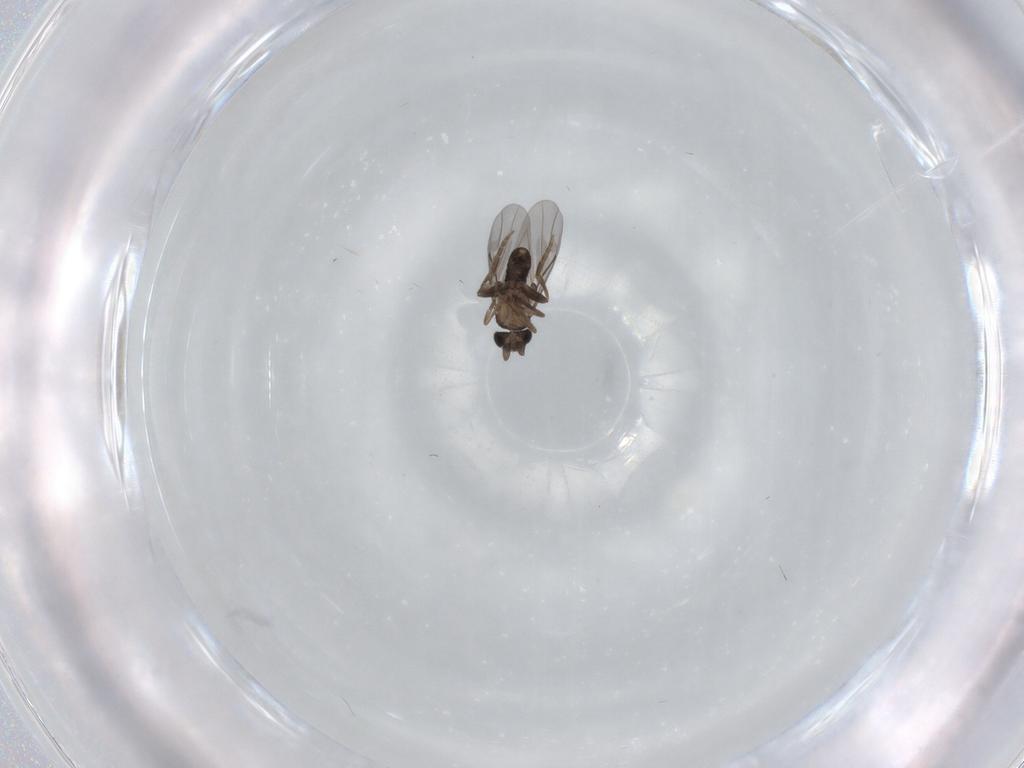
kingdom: Animalia
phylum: Arthropoda
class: Insecta
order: Diptera
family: Phoridae
